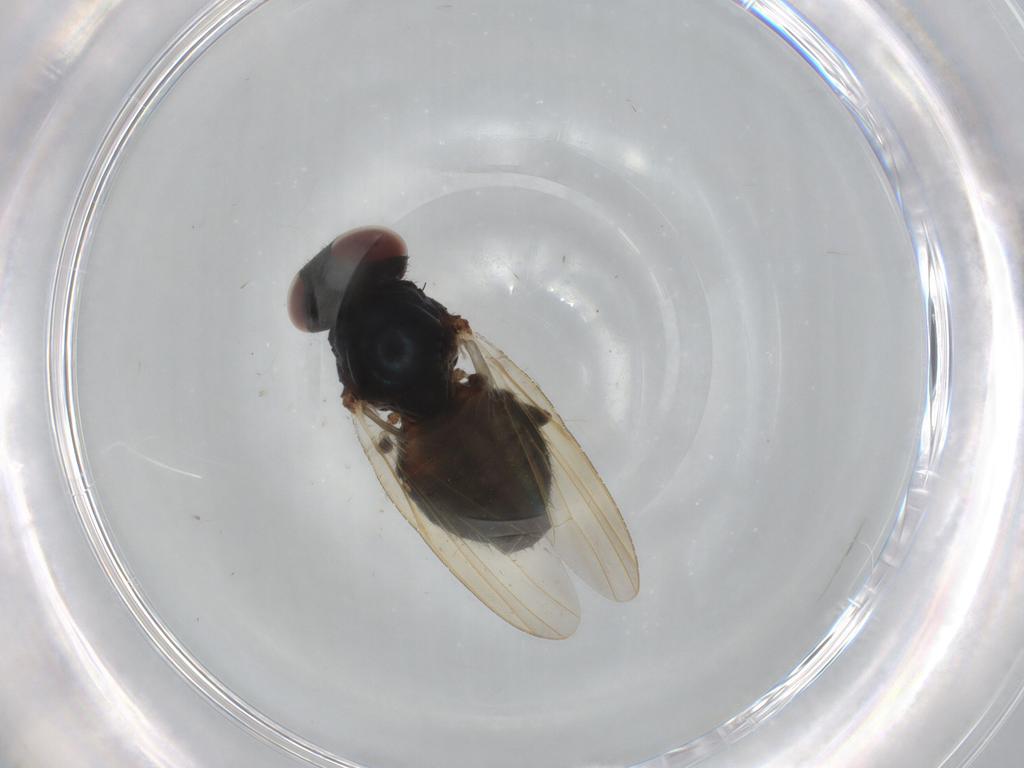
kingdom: Animalia
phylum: Arthropoda
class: Insecta
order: Diptera
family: Lonchaeidae
